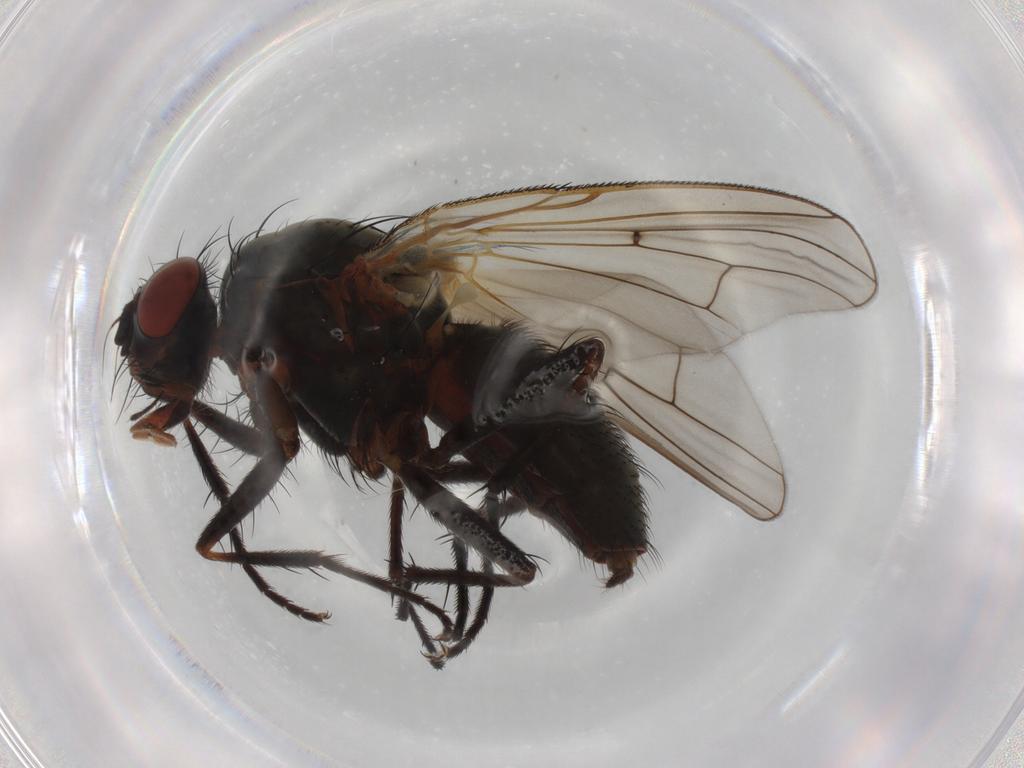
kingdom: Animalia
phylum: Arthropoda
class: Insecta
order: Diptera
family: Anthomyiidae
